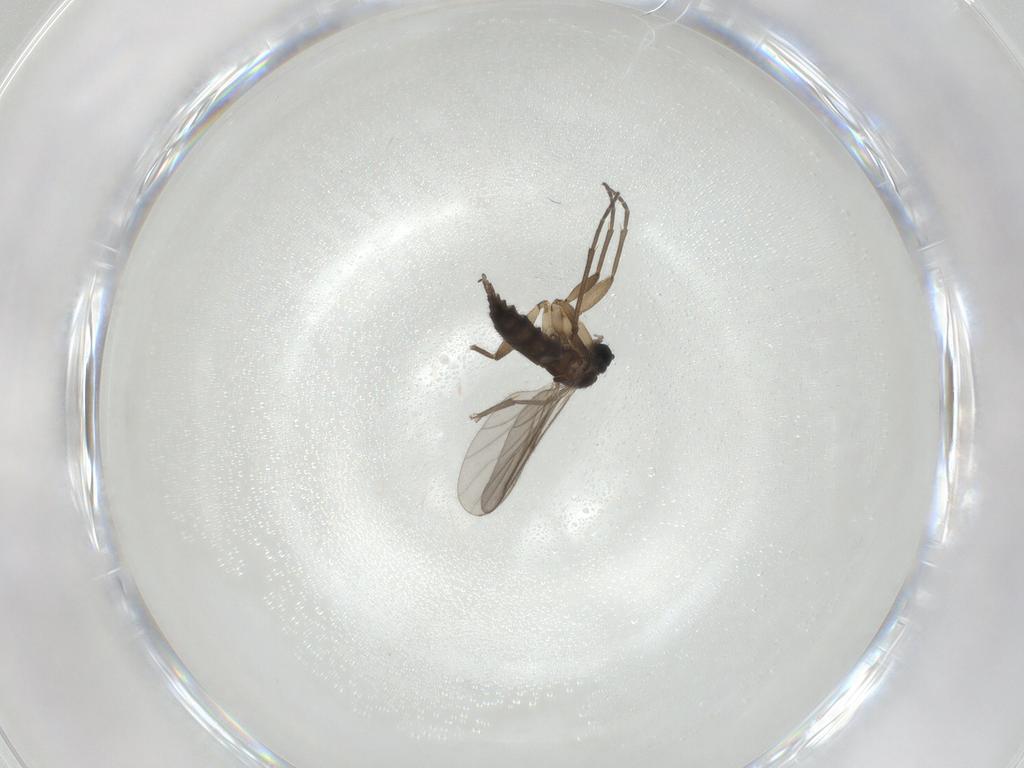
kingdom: Animalia
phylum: Arthropoda
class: Insecta
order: Diptera
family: Sciaridae
